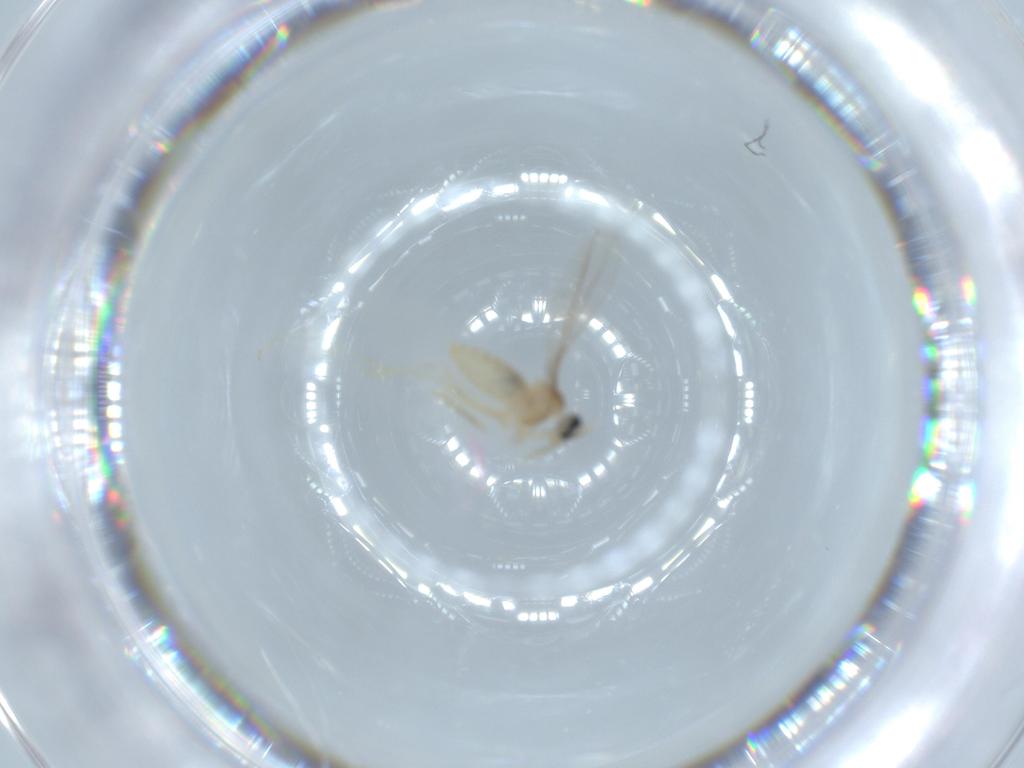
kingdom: Animalia
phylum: Arthropoda
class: Insecta
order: Diptera
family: Cecidomyiidae
